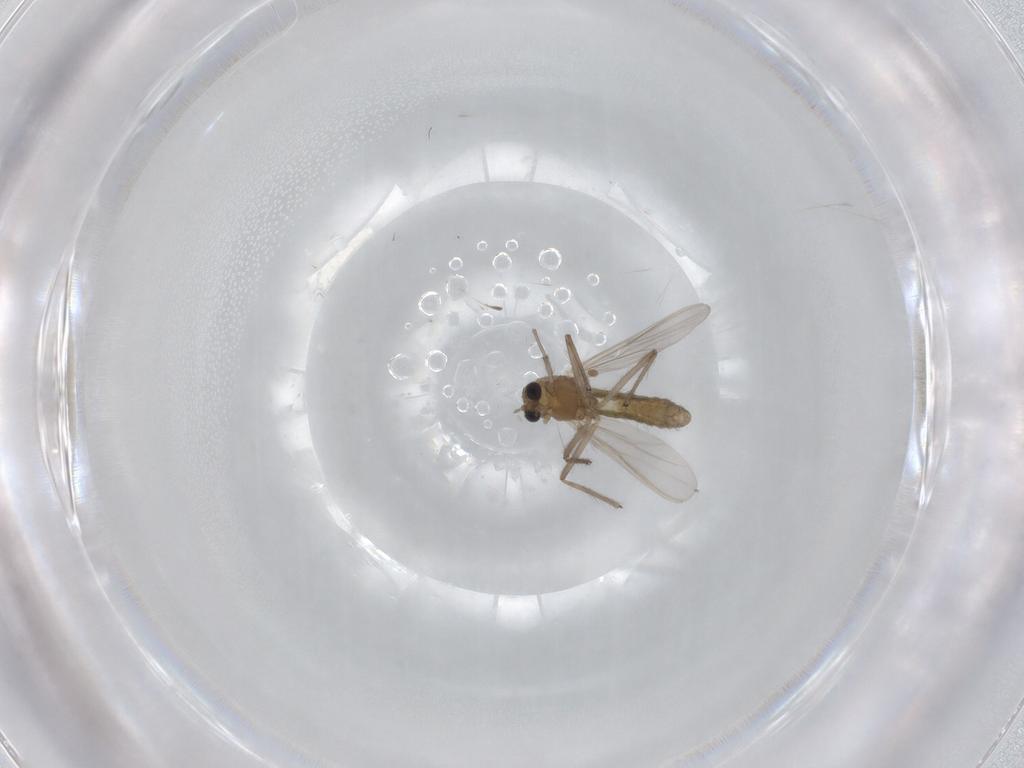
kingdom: Animalia
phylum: Arthropoda
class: Insecta
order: Diptera
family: Chironomidae
